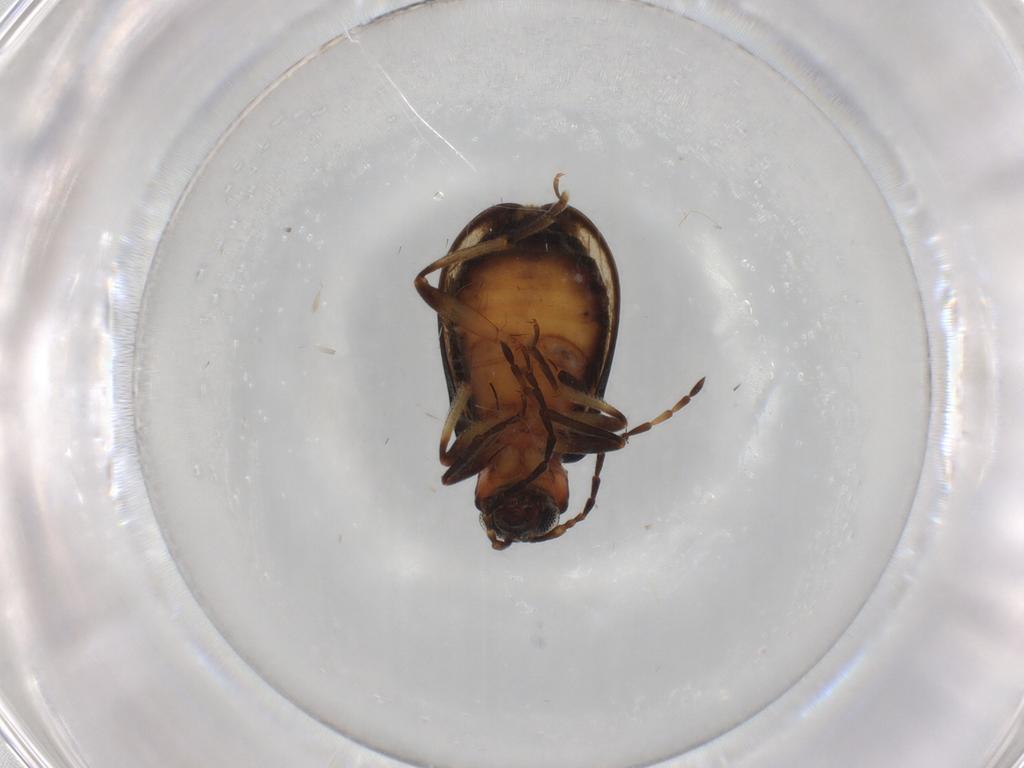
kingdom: Animalia
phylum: Arthropoda
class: Insecta
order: Coleoptera
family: Chrysomelidae
